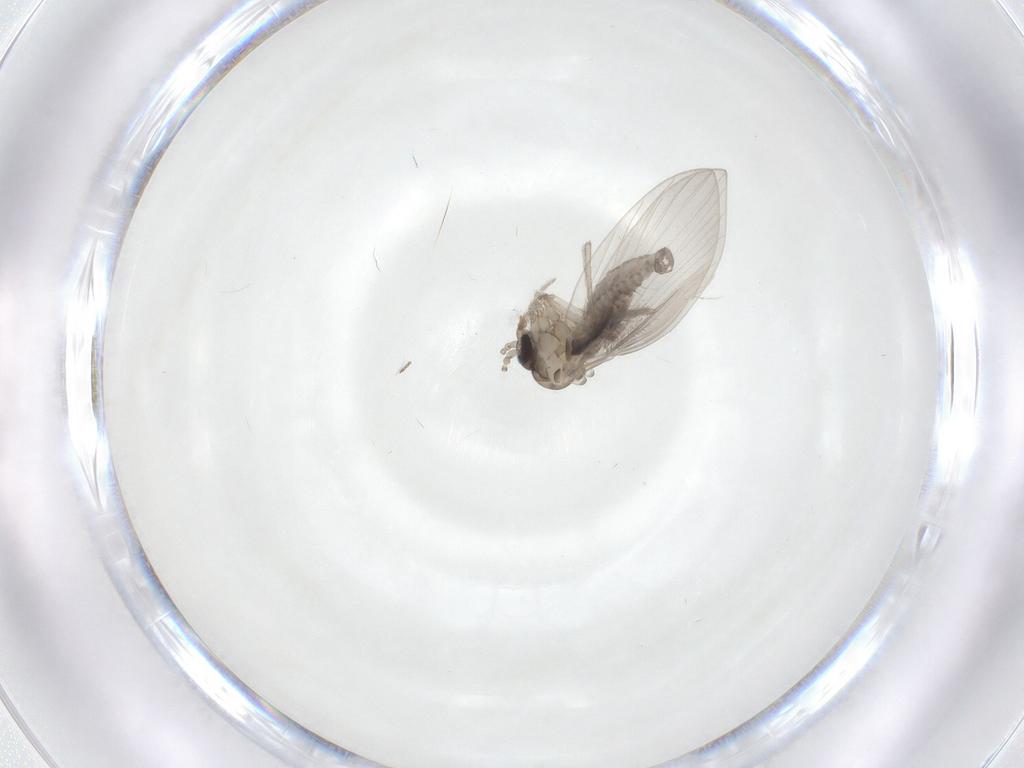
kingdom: Animalia
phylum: Arthropoda
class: Insecta
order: Diptera
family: Psychodidae
